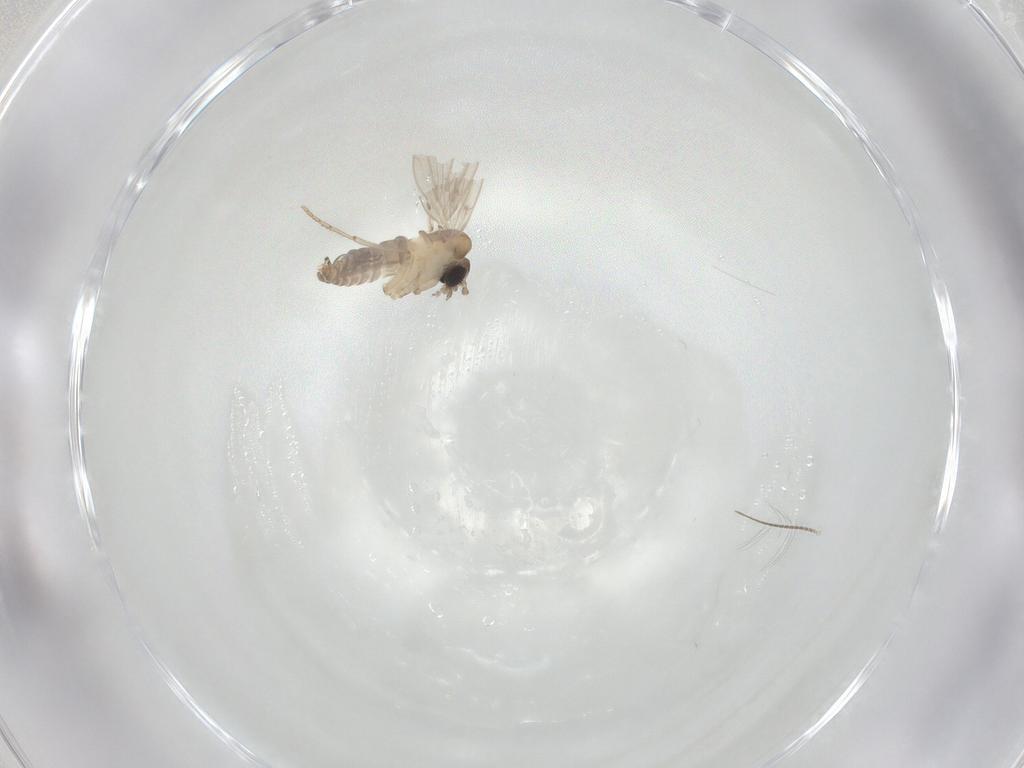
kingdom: Animalia
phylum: Arthropoda
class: Insecta
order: Diptera
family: Psychodidae
